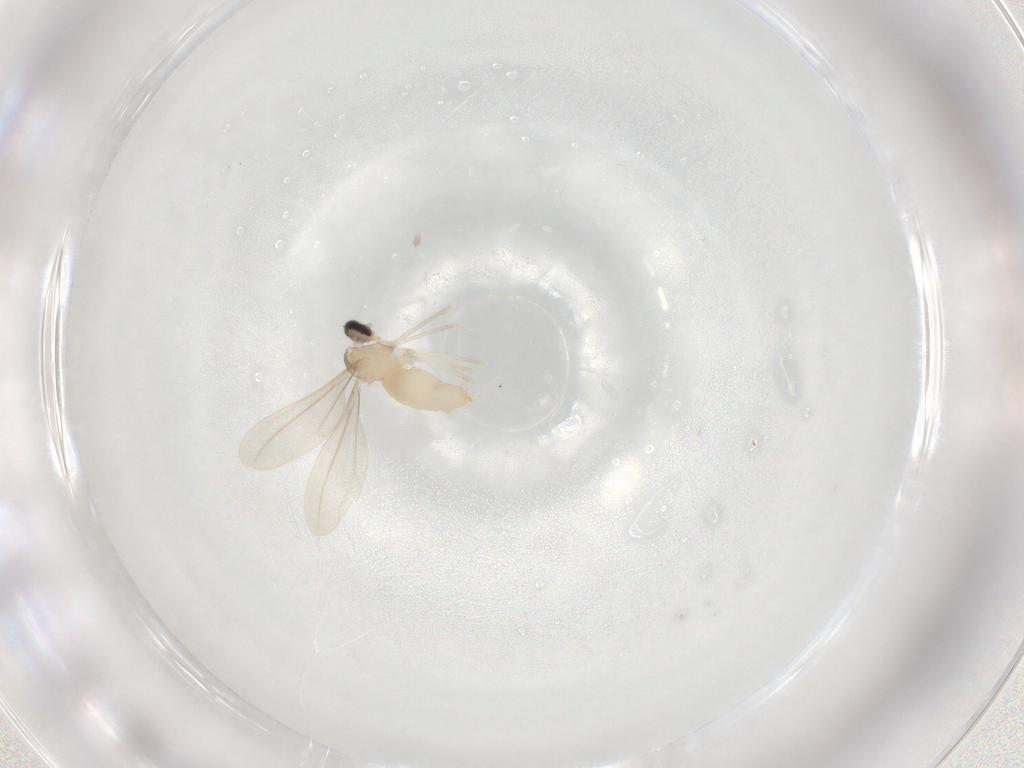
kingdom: Animalia
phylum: Arthropoda
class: Insecta
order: Diptera
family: Cecidomyiidae
